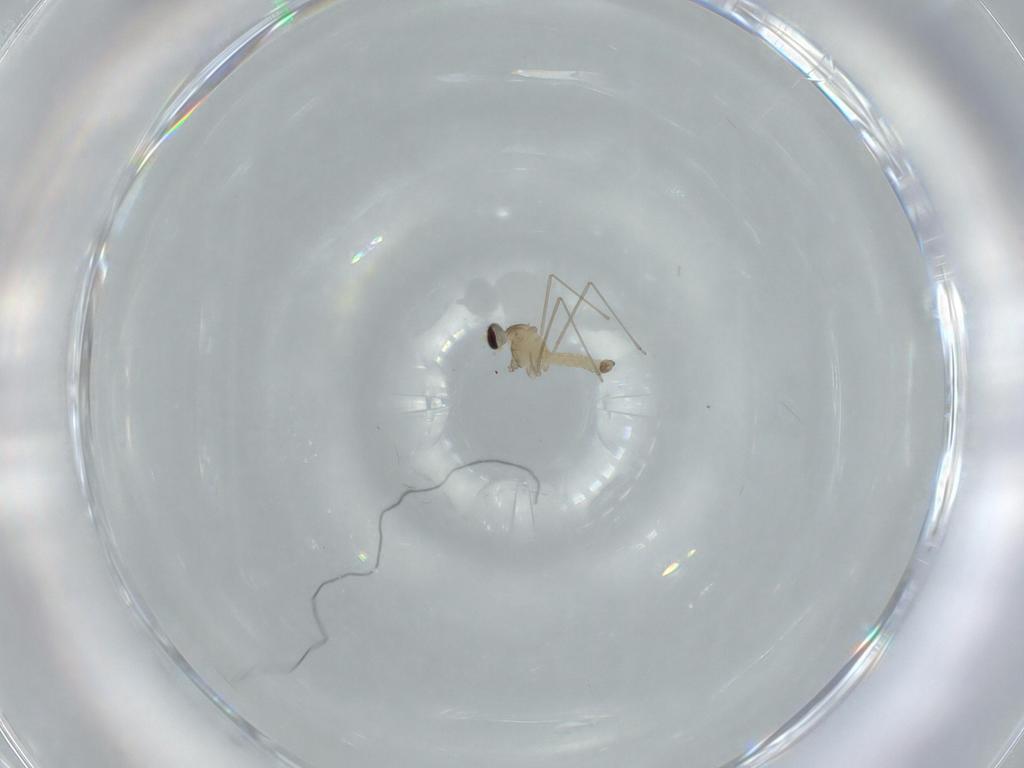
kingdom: Animalia
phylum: Arthropoda
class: Insecta
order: Diptera
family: Cecidomyiidae
